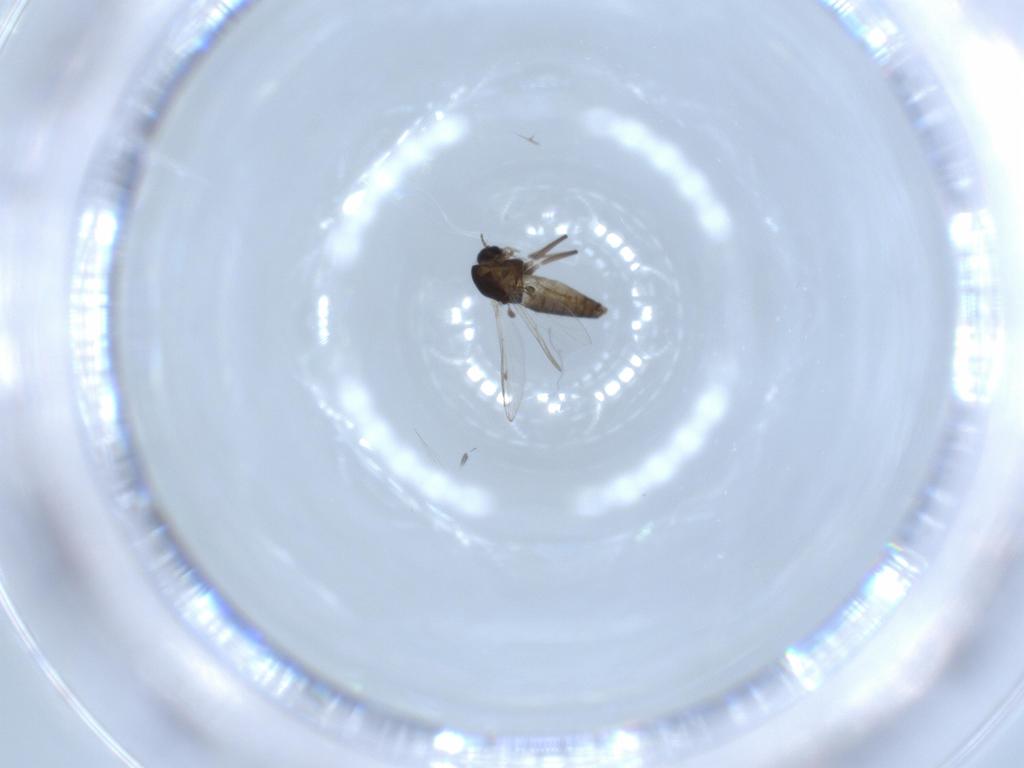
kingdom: Animalia
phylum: Arthropoda
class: Insecta
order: Diptera
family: Chironomidae
